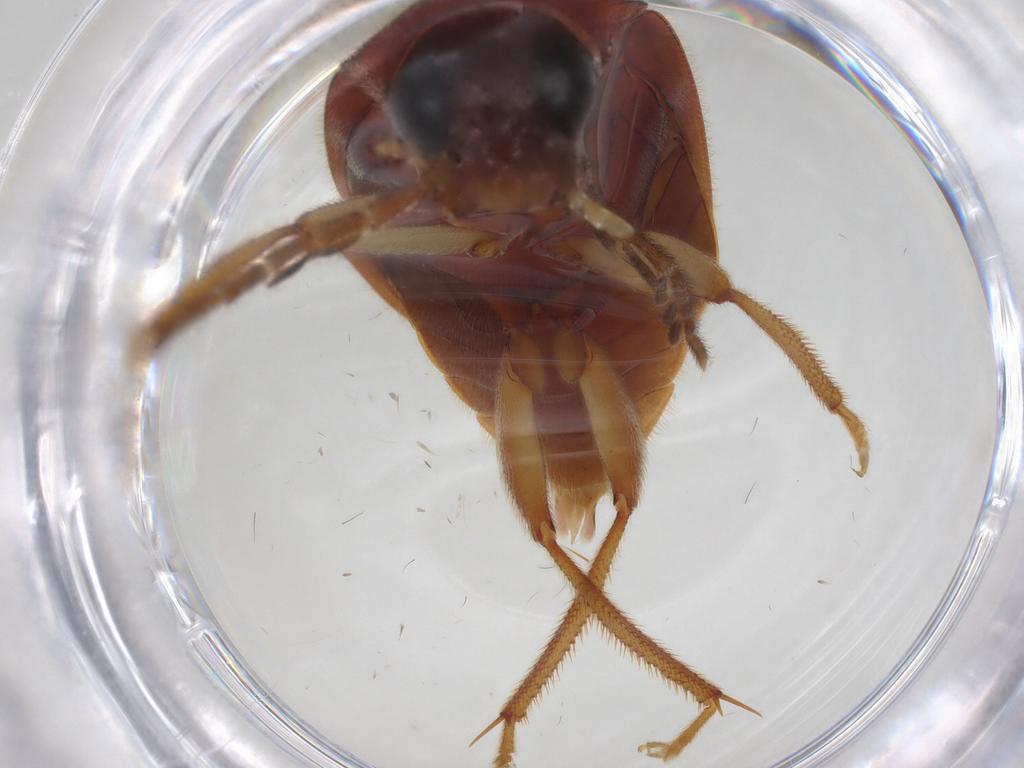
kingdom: Animalia
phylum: Arthropoda
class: Insecta
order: Coleoptera
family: Ptilodactylidae
